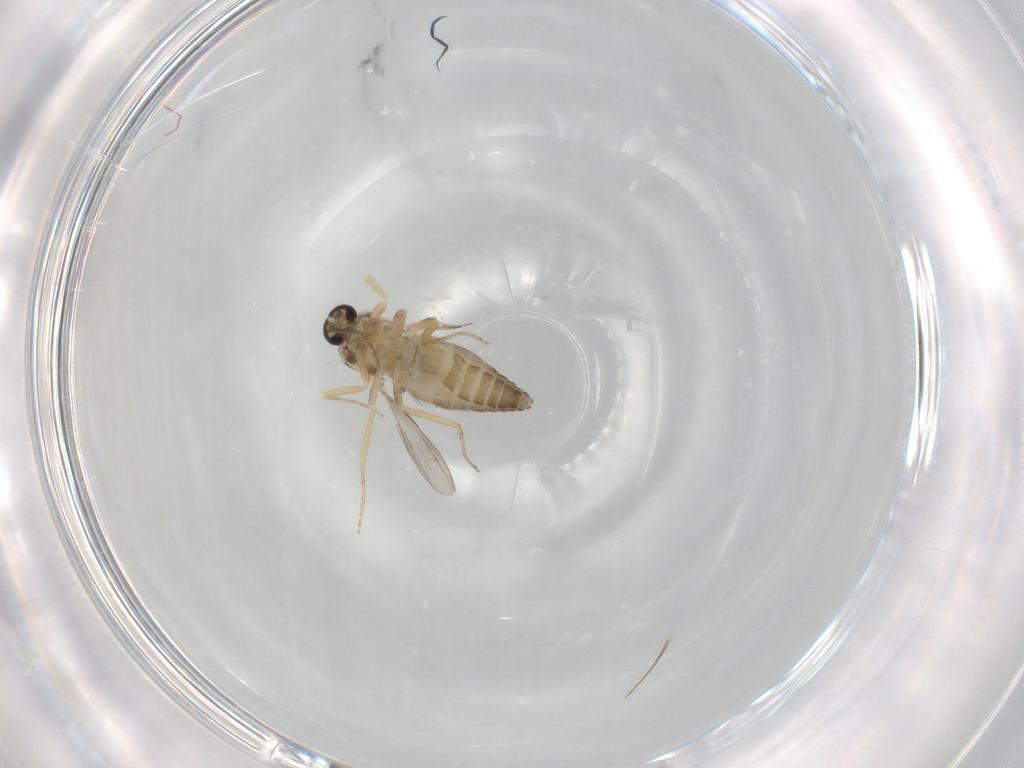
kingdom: Animalia
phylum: Arthropoda
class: Insecta
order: Diptera
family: Ceratopogonidae
